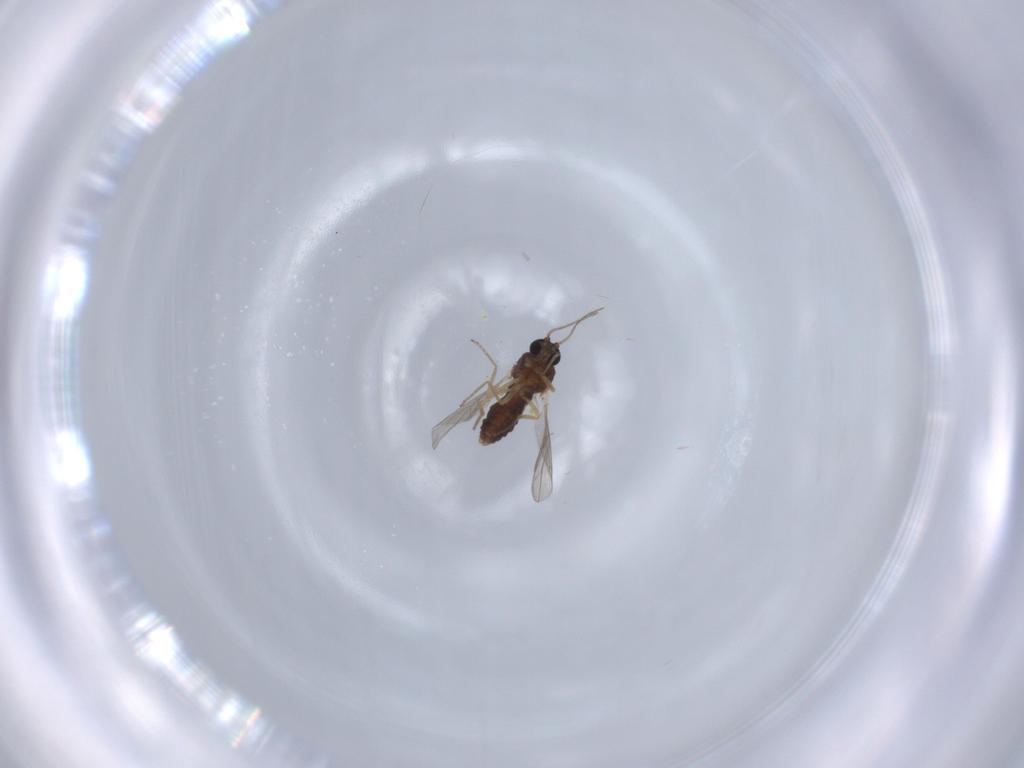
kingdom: Animalia
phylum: Arthropoda
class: Insecta
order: Diptera
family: Ceratopogonidae
